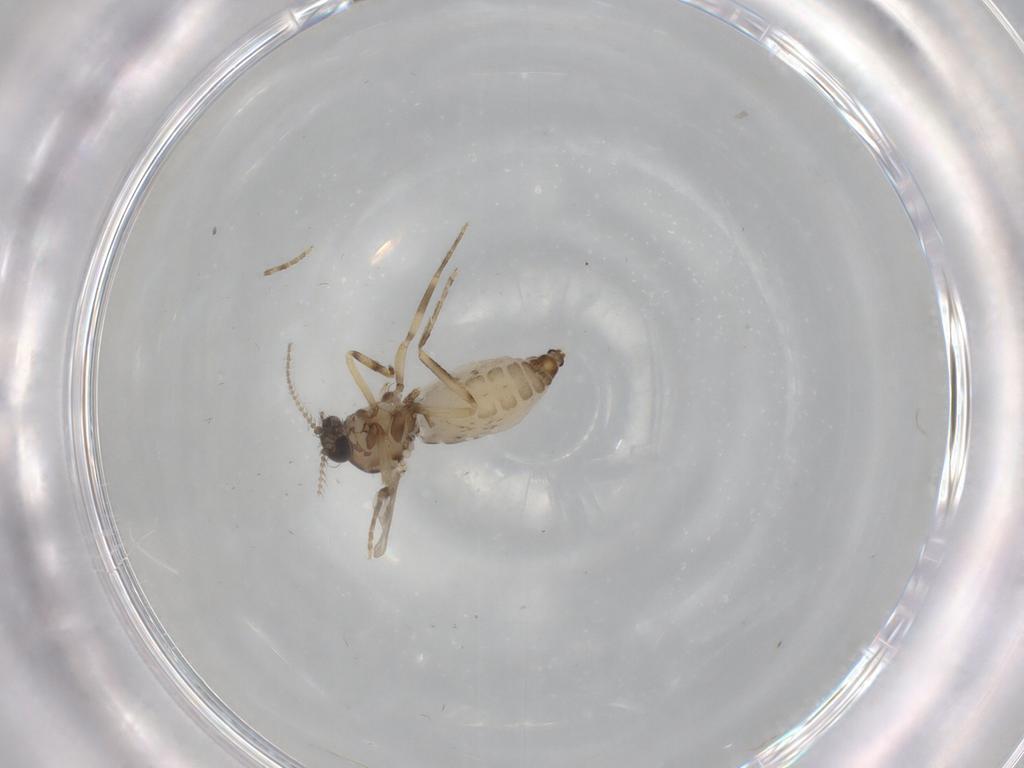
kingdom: Animalia
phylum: Arthropoda
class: Insecta
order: Diptera
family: Ceratopogonidae
